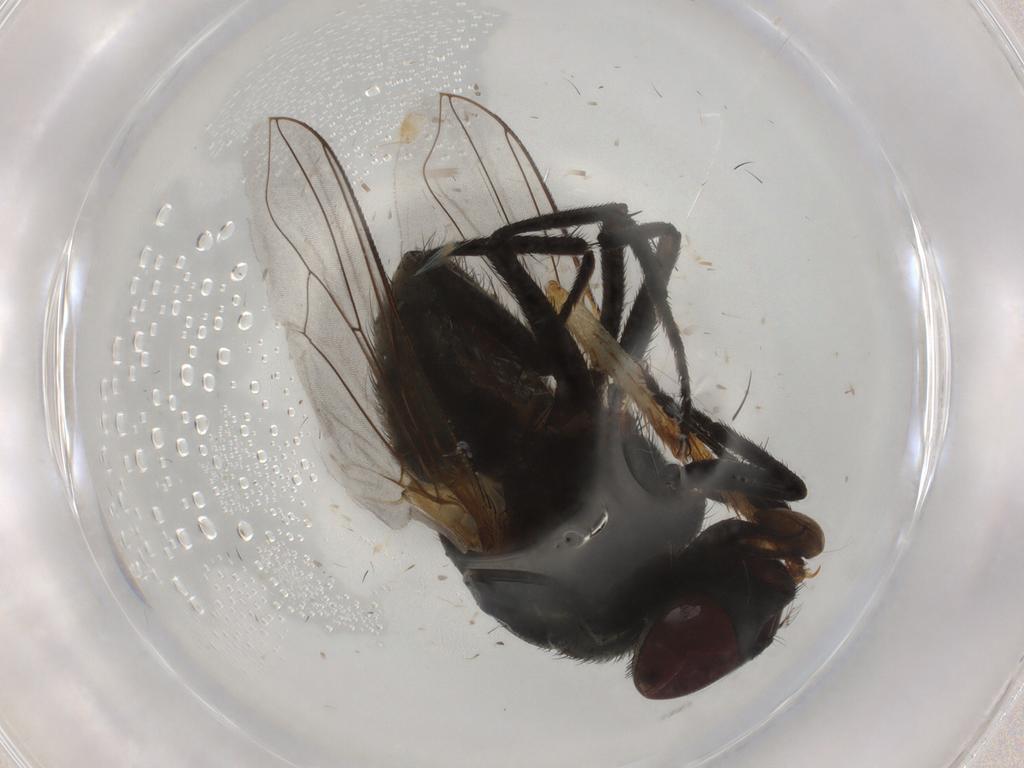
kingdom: Animalia
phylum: Arthropoda
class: Insecta
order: Diptera
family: Muscidae
